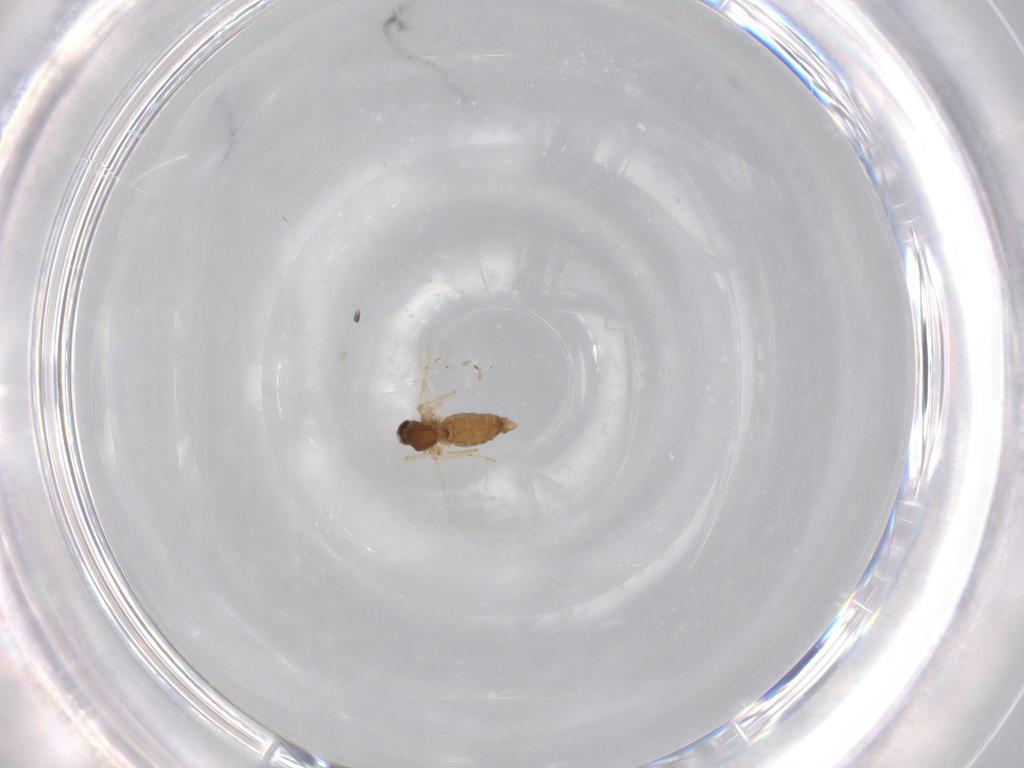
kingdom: Animalia
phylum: Arthropoda
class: Insecta
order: Diptera
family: Ceratopogonidae
